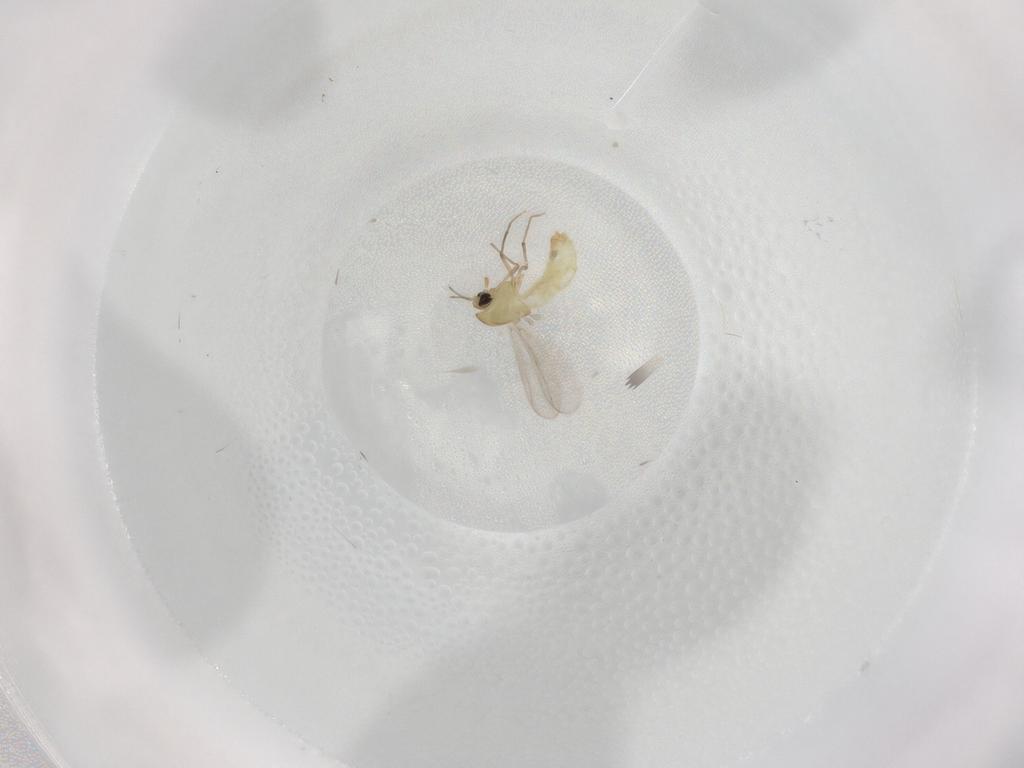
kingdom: Animalia
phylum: Arthropoda
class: Insecta
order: Diptera
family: Chironomidae
